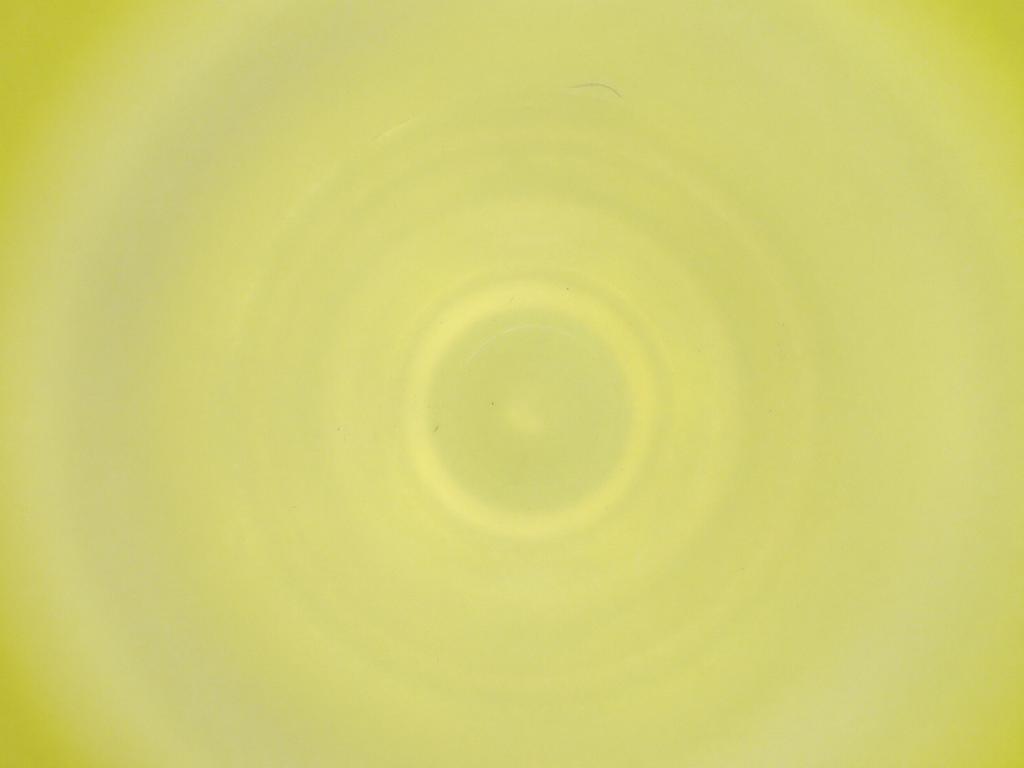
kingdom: Animalia
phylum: Arthropoda
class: Insecta
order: Diptera
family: Cecidomyiidae
